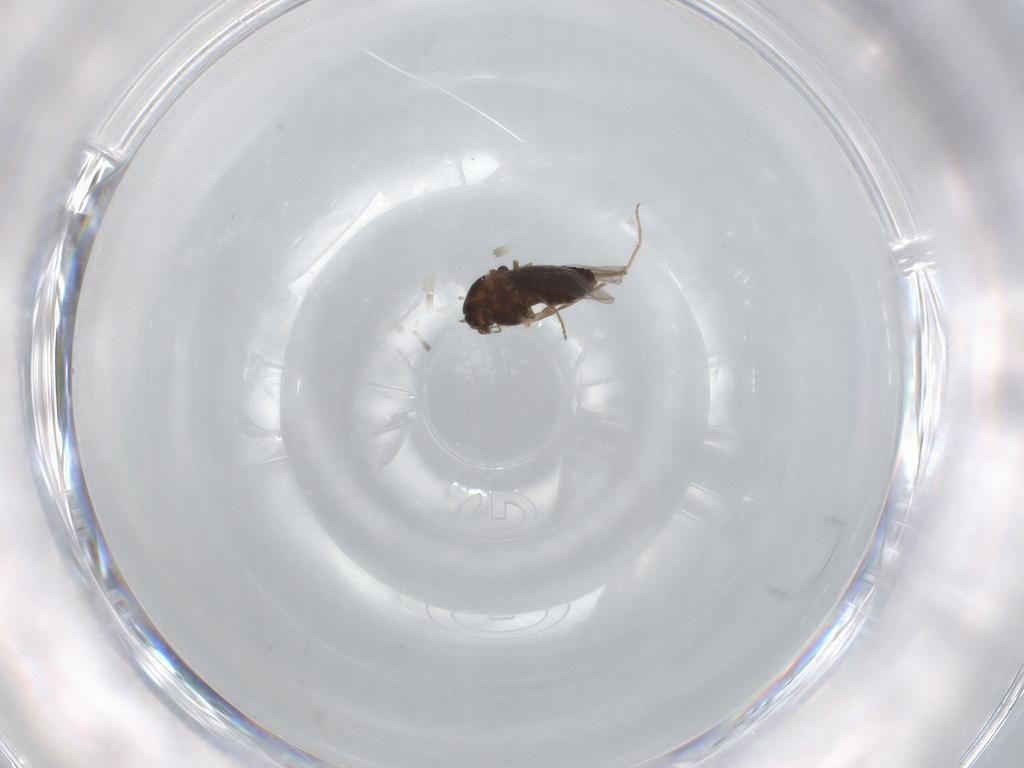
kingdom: Animalia
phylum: Arthropoda
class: Insecta
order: Diptera
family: Chironomidae
